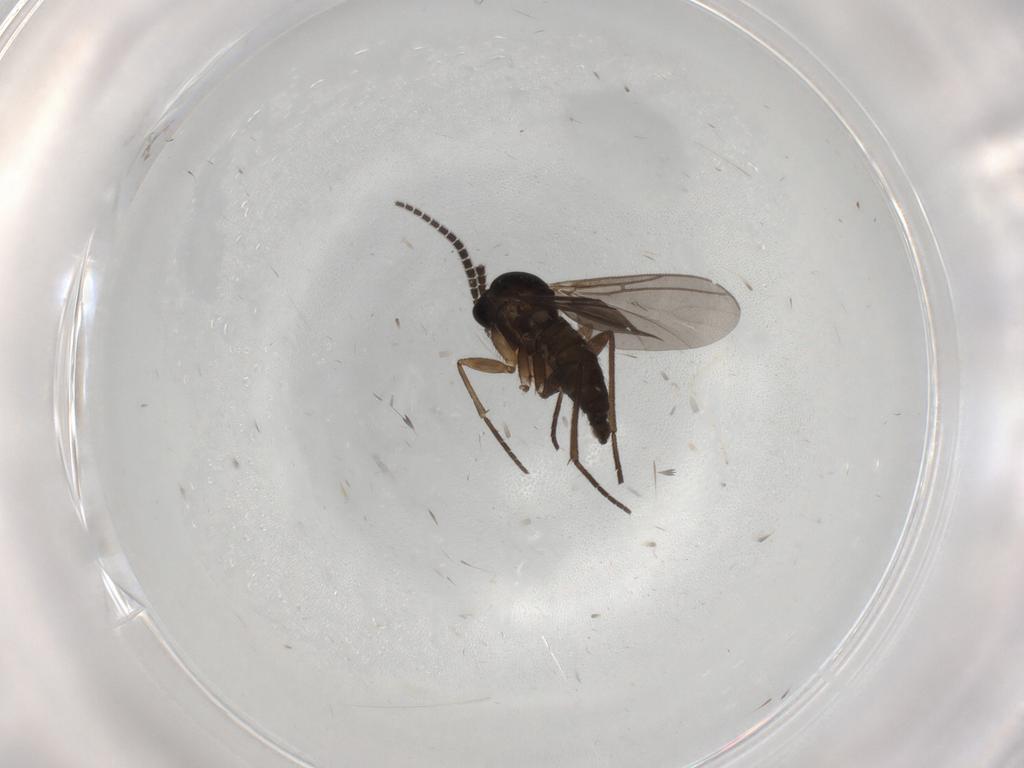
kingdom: Animalia
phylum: Arthropoda
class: Insecta
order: Diptera
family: Sciaridae
